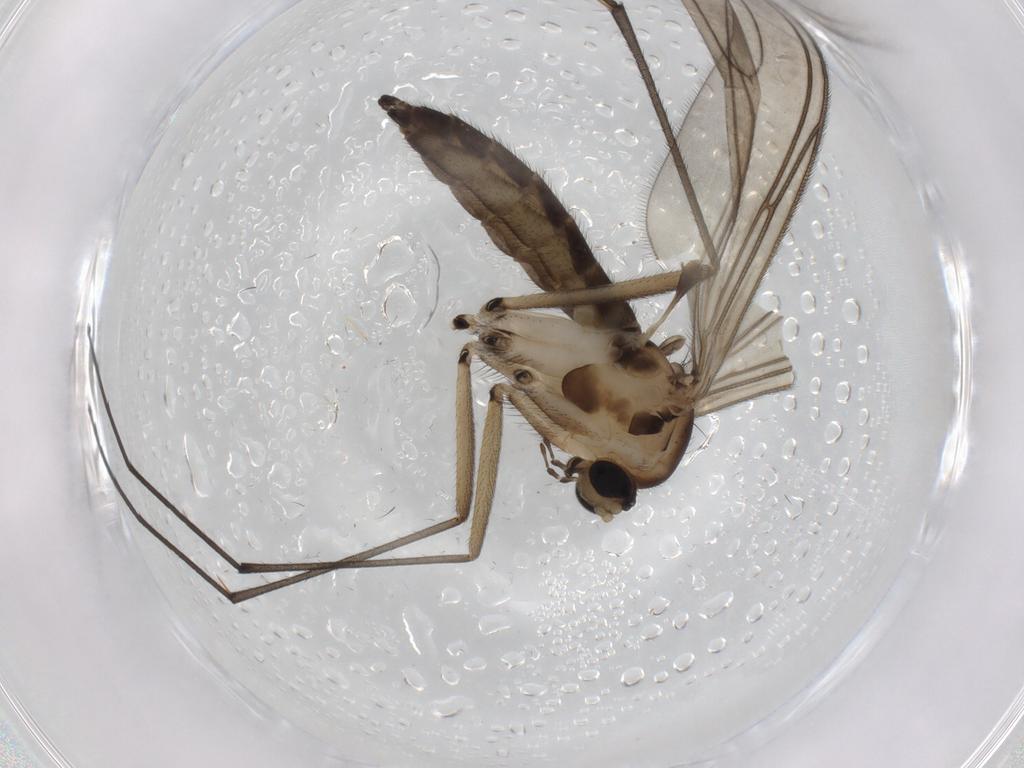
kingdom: Animalia
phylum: Arthropoda
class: Insecta
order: Diptera
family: Sciaridae
